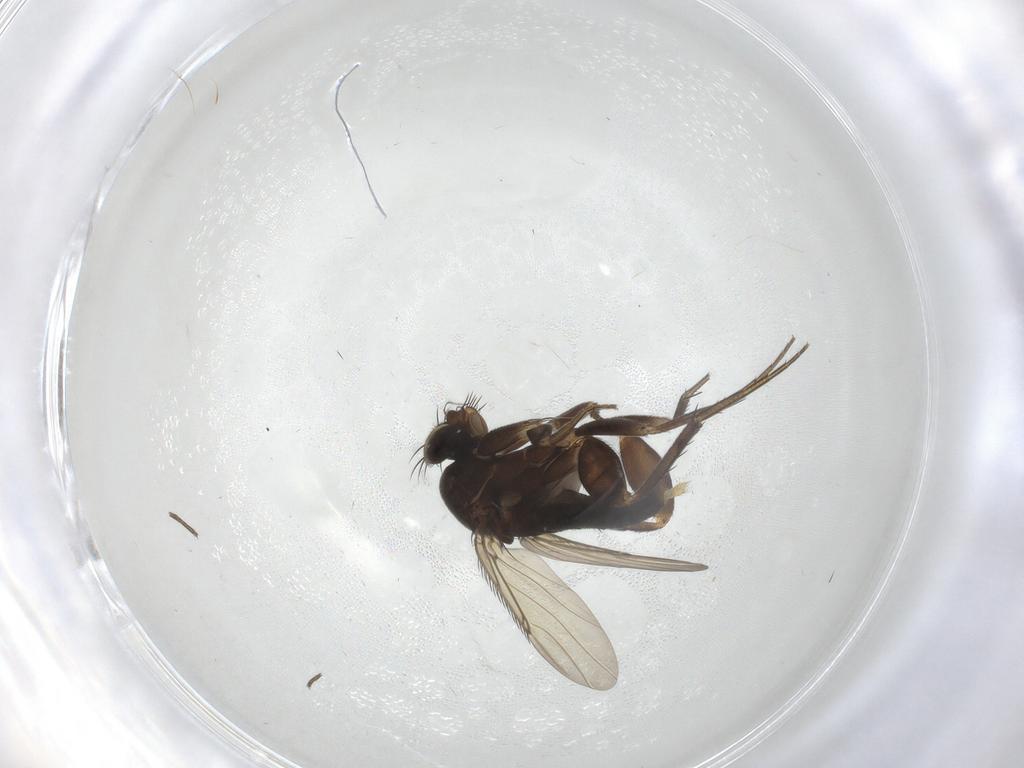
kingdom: Animalia
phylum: Arthropoda
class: Insecta
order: Diptera
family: Phoridae
